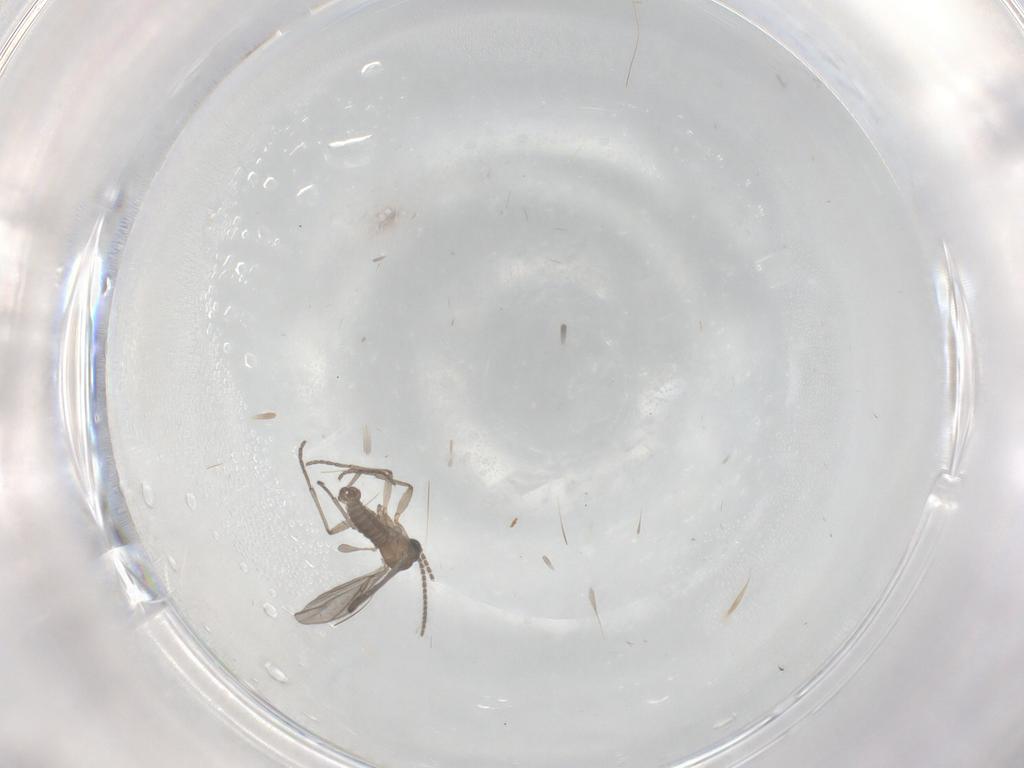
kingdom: Animalia
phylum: Arthropoda
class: Insecta
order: Diptera
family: Sciaridae
